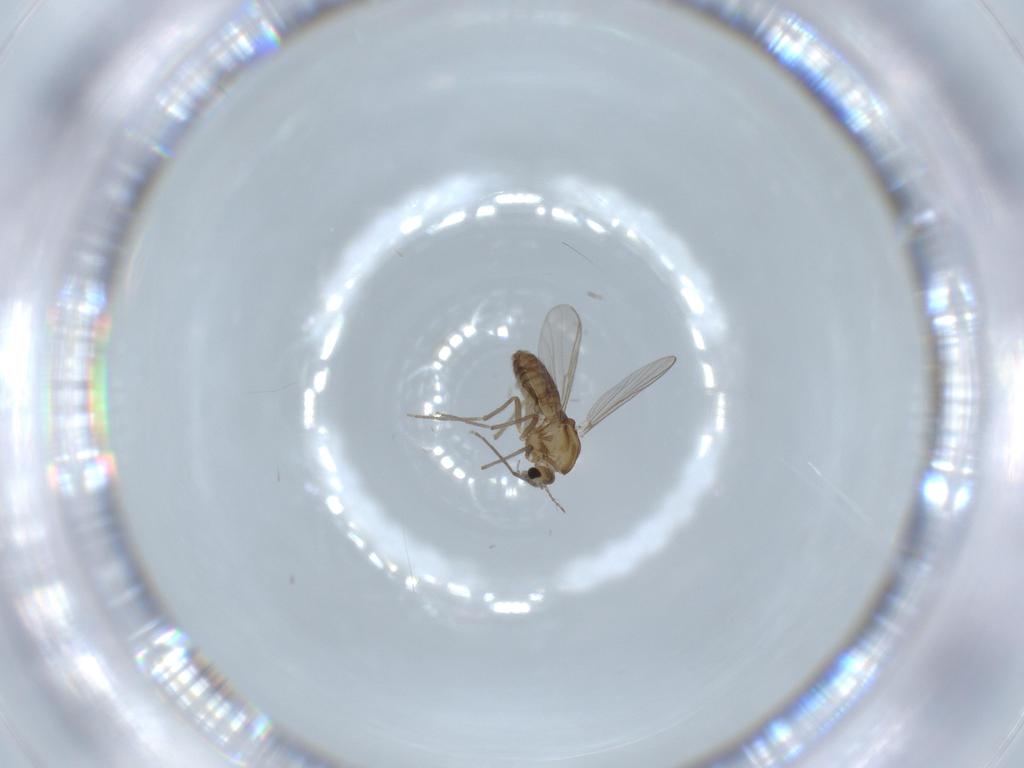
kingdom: Animalia
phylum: Arthropoda
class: Insecta
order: Diptera
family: Chironomidae
